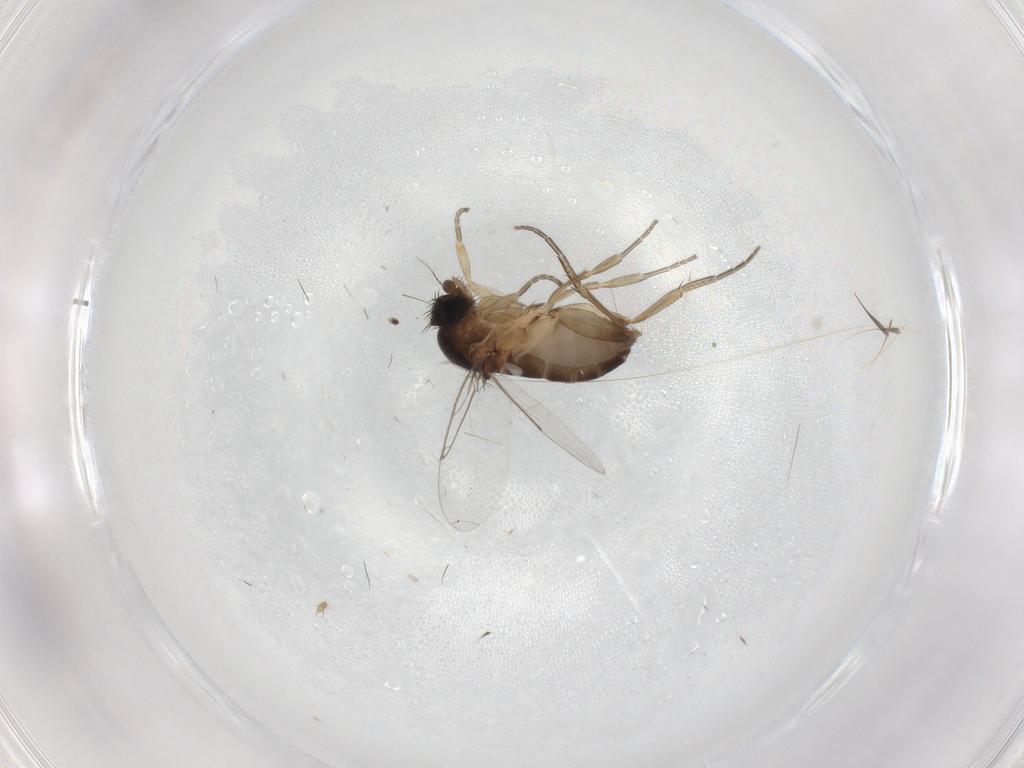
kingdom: Animalia
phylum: Arthropoda
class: Insecta
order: Diptera
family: Phoridae
